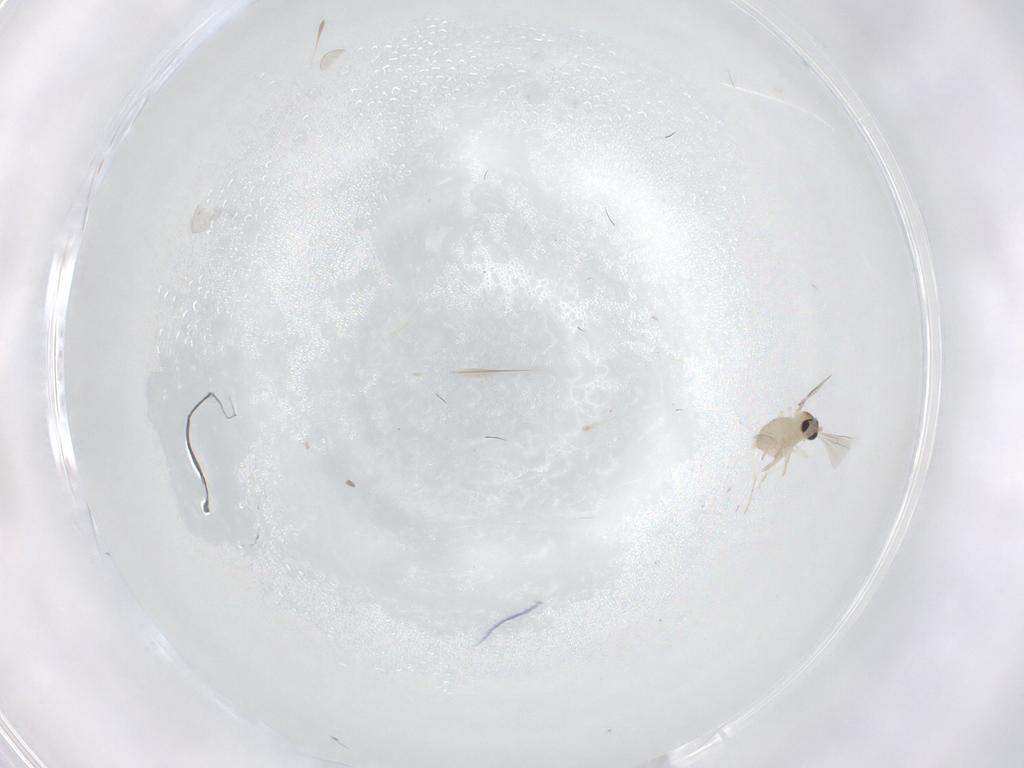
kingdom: Animalia
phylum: Arthropoda
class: Insecta
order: Diptera
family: Cecidomyiidae
